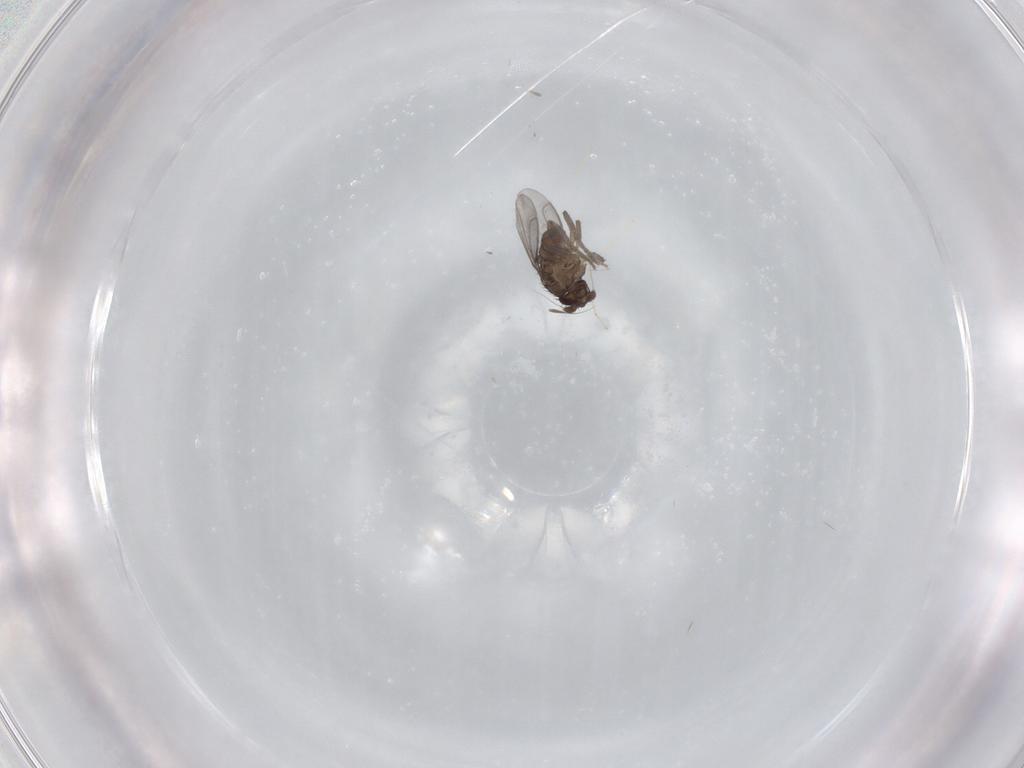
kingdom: Animalia
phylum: Arthropoda
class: Insecta
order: Diptera
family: Cecidomyiidae
